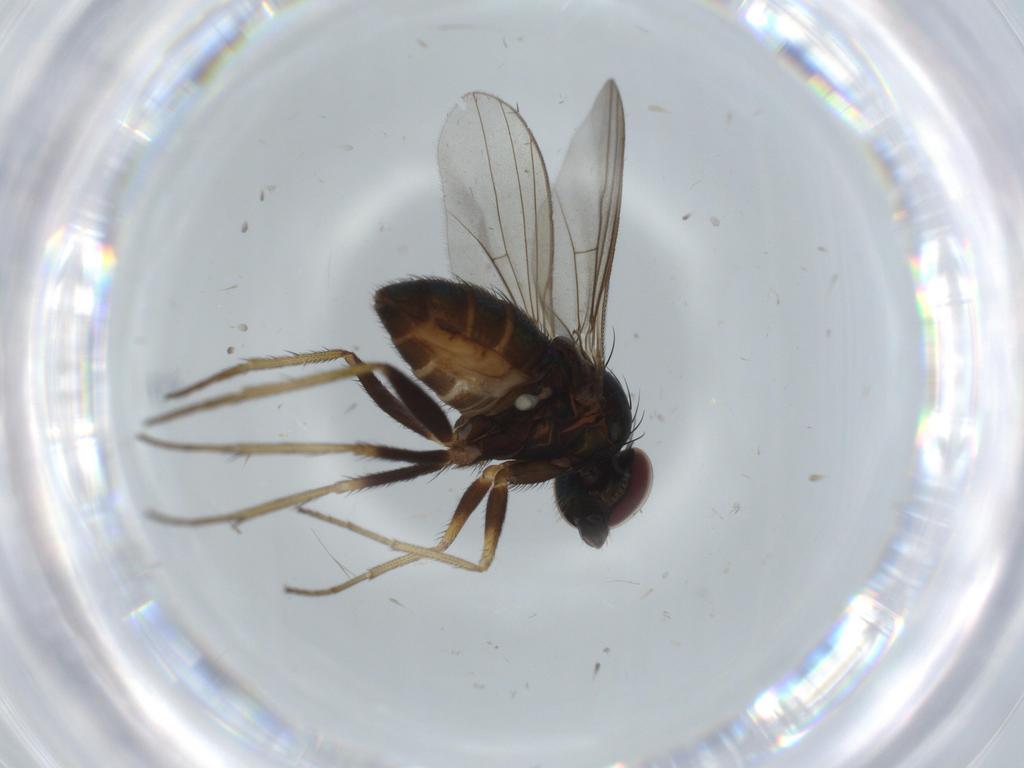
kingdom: Animalia
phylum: Arthropoda
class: Insecta
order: Diptera
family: Dolichopodidae
